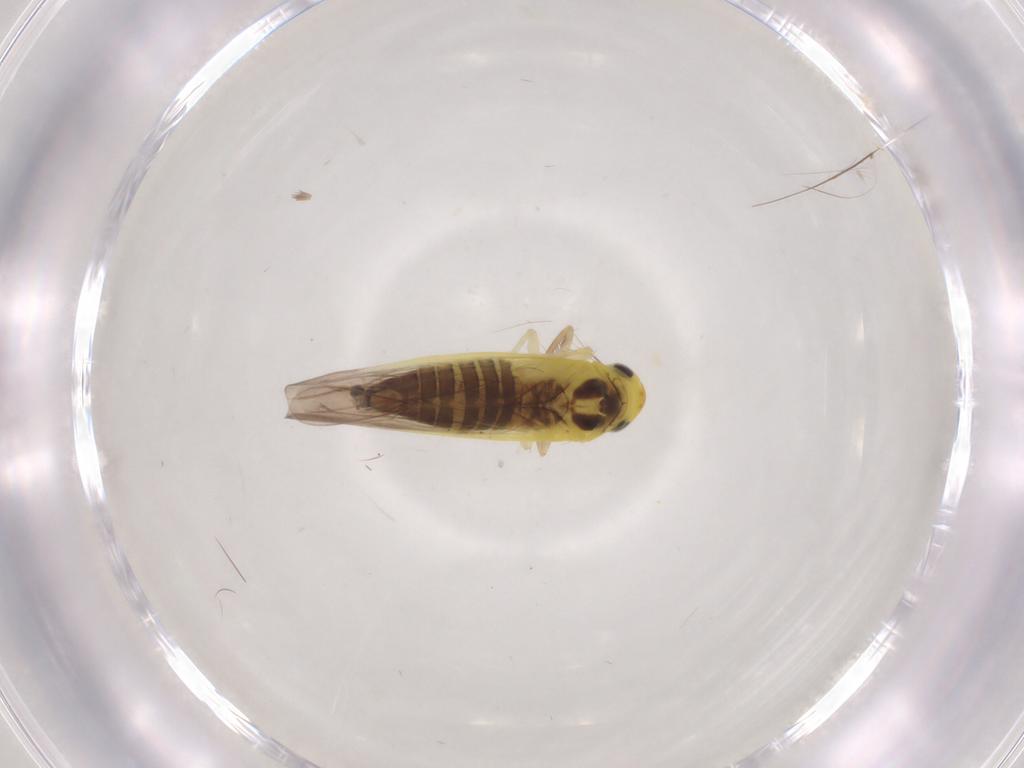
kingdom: Animalia
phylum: Arthropoda
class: Insecta
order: Hemiptera
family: Cicadellidae
